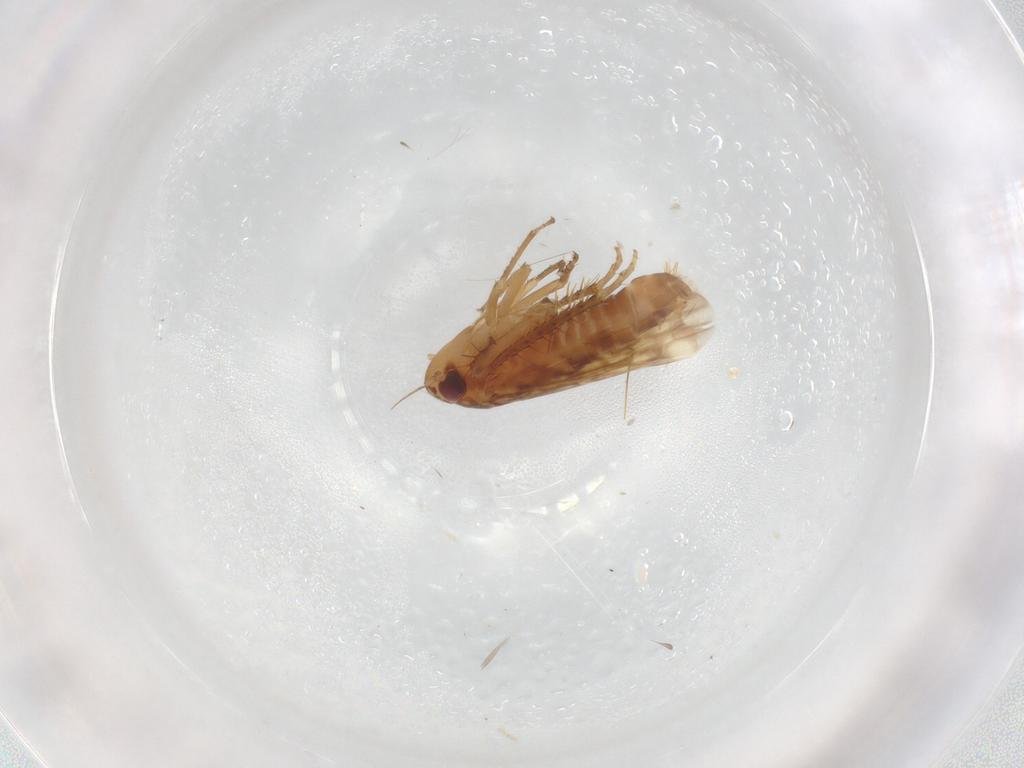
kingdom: Animalia
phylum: Arthropoda
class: Insecta
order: Hemiptera
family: Cicadellidae
